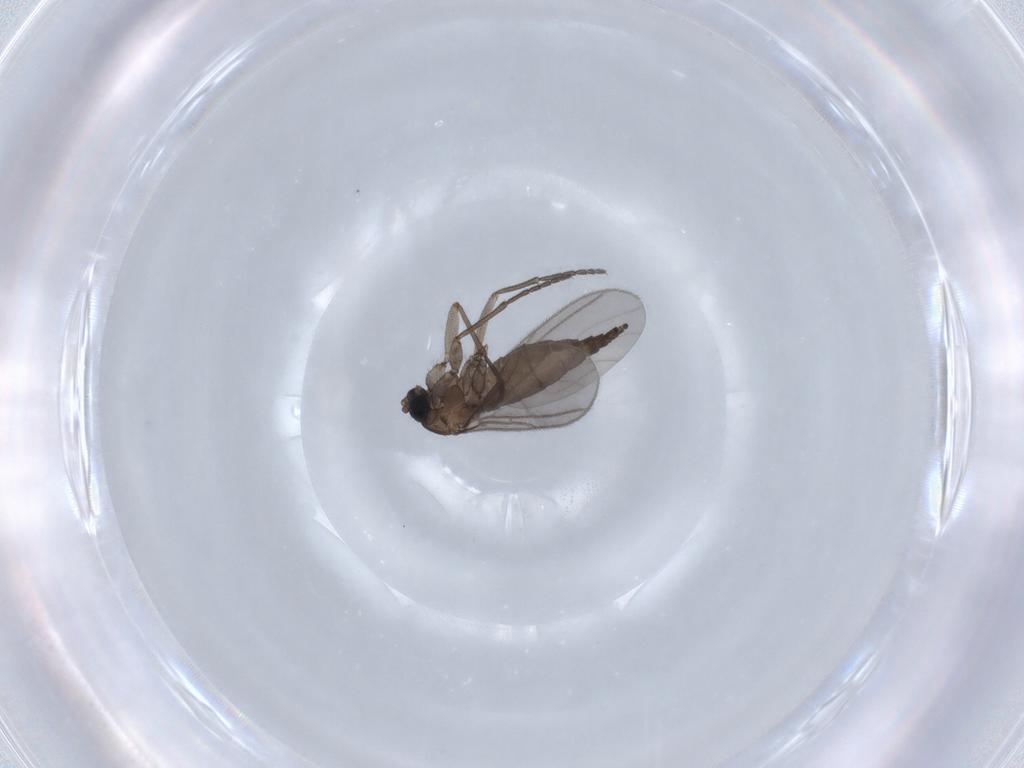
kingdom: Animalia
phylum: Arthropoda
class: Insecta
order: Diptera
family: Sciaridae
